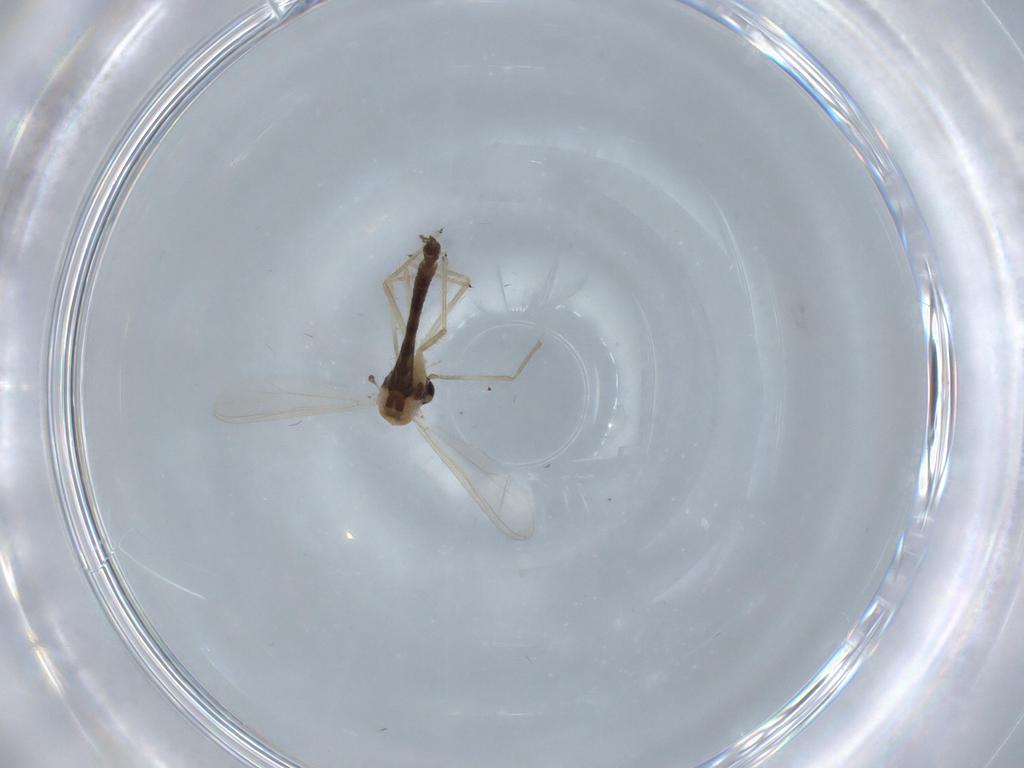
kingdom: Animalia
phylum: Arthropoda
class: Insecta
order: Diptera
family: Chironomidae
